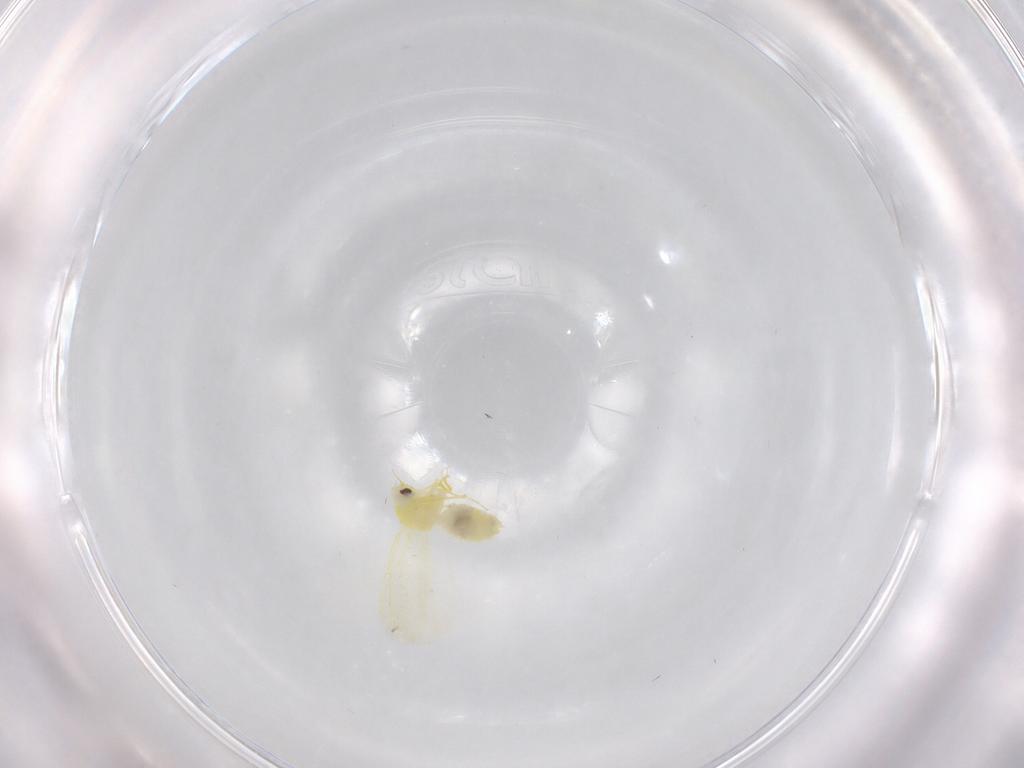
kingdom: Animalia
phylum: Arthropoda
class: Insecta
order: Hemiptera
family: Aleyrodidae
